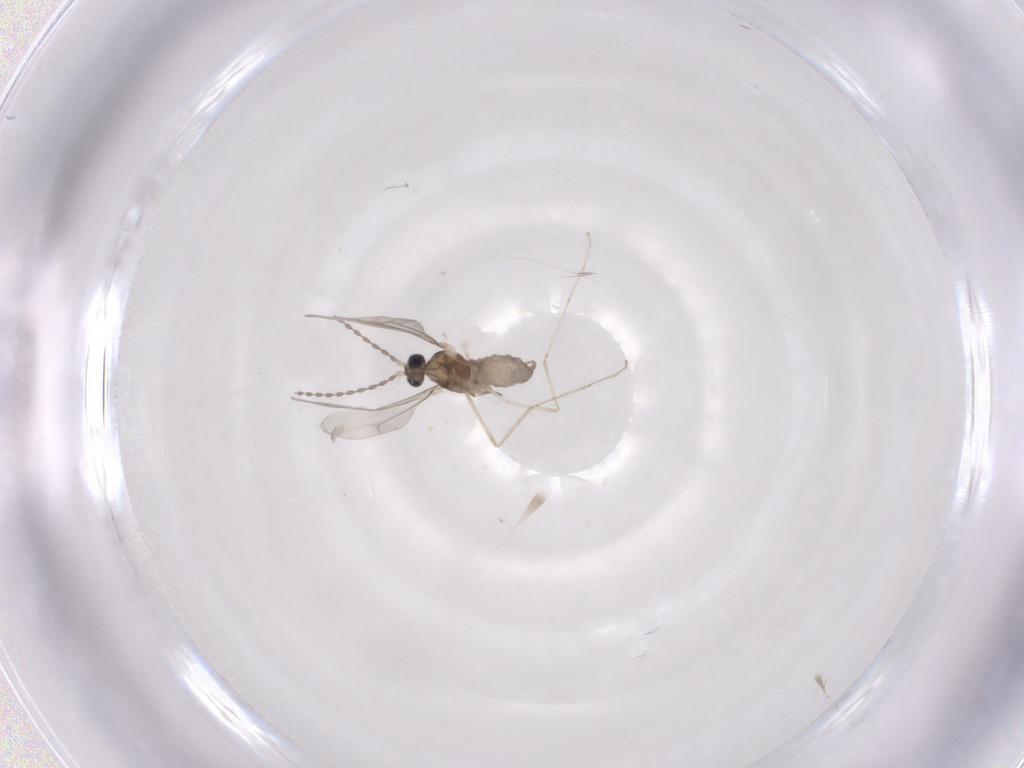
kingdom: Animalia
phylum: Arthropoda
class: Insecta
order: Diptera
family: Cecidomyiidae
